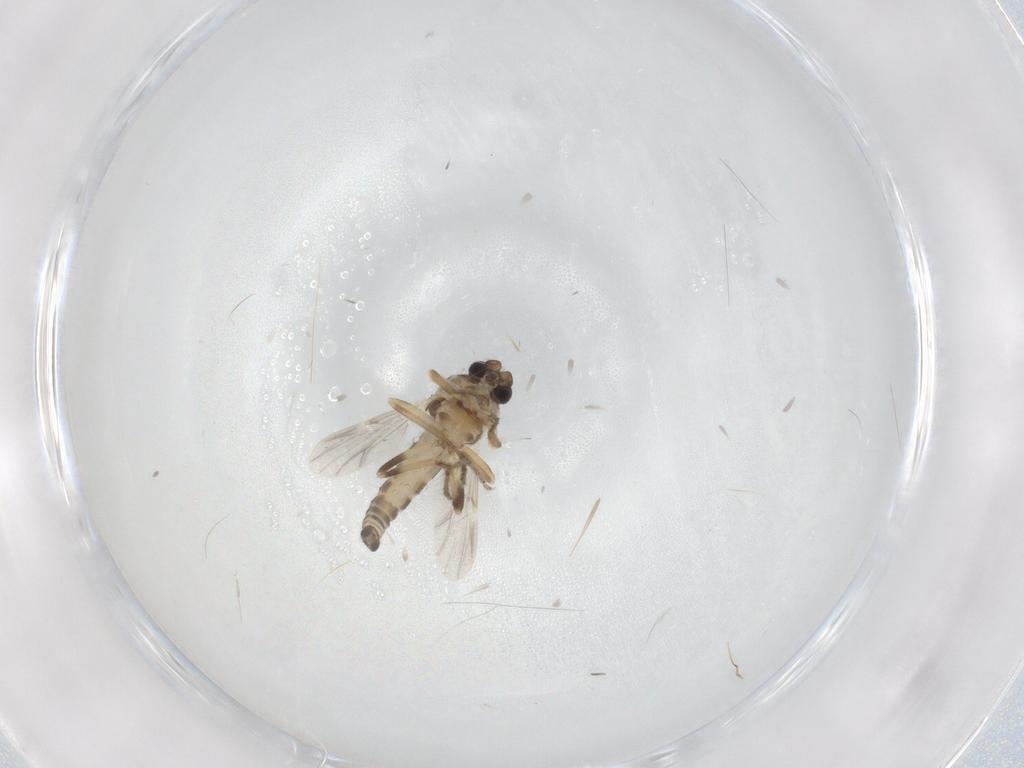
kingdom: Animalia
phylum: Arthropoda
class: Insecta
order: Diptera
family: Ceratopogonidae
